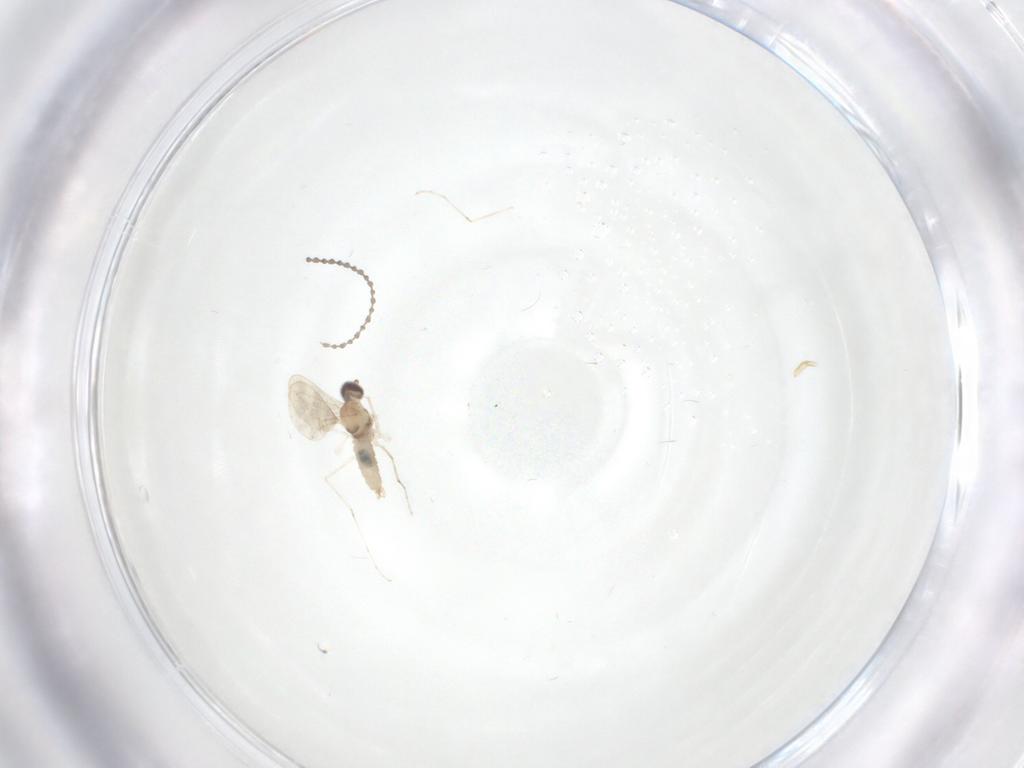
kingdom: Animalia
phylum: Arthropoda
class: Insecta
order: Diptera
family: Cecidomyiidae
